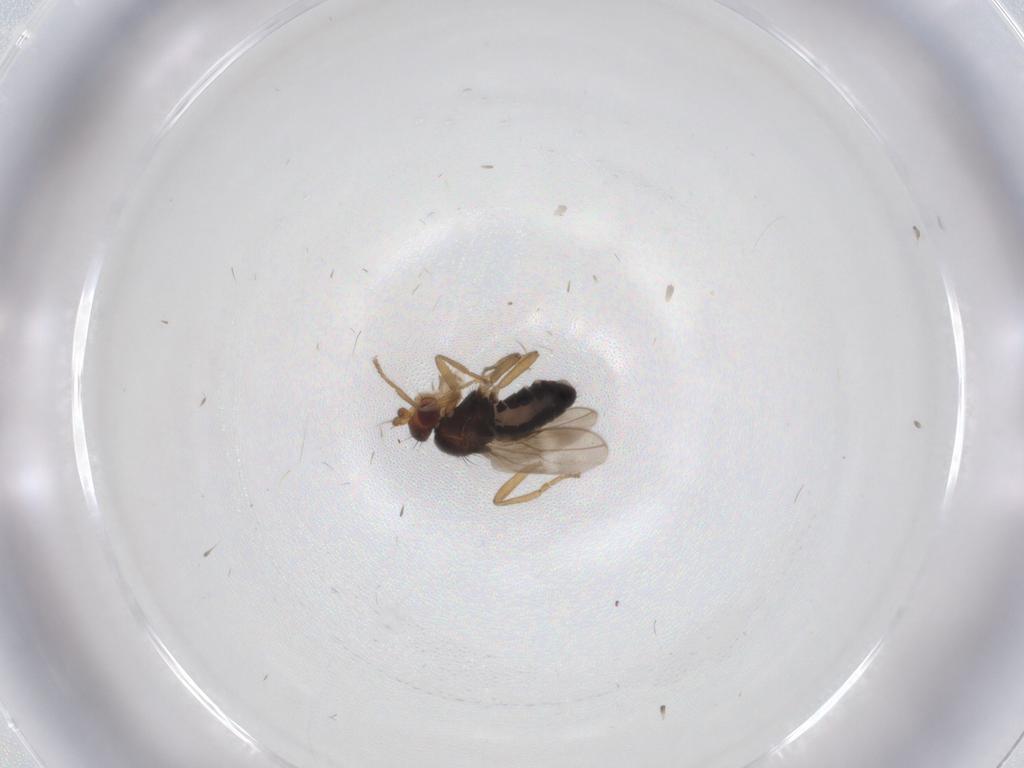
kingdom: Animalia
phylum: Arthropoda
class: Insecta
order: Diptera
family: Sphaeroceridae
